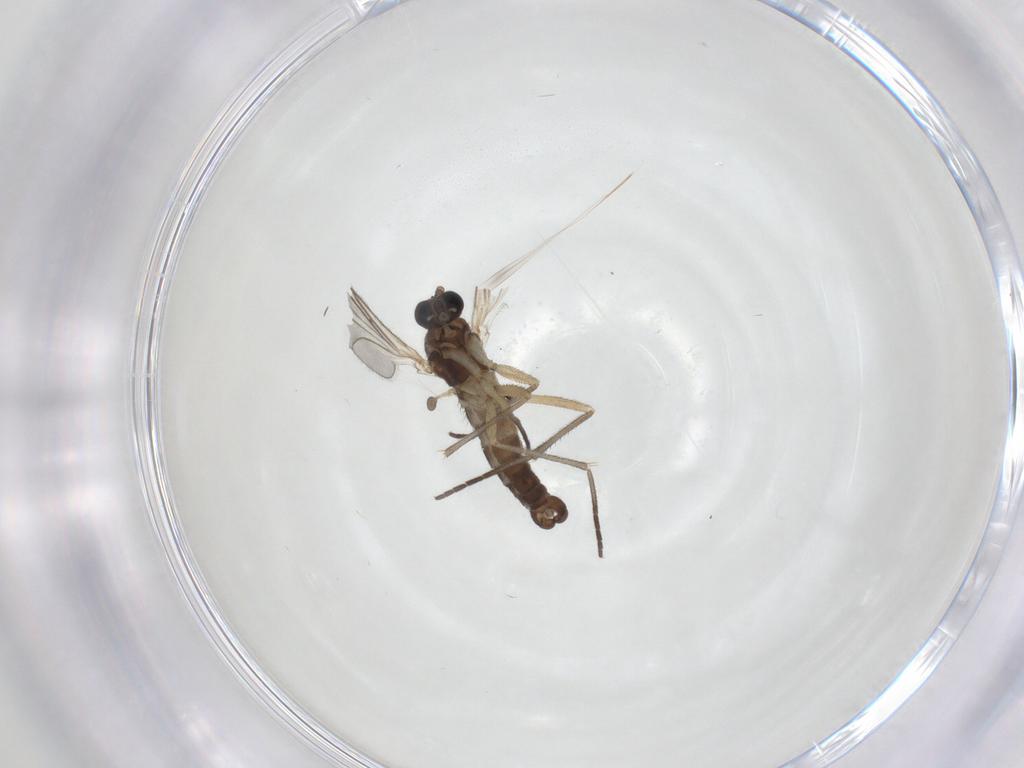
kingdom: Animalia
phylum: Arthropoda
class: Insecta
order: Diptera
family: Sciaridae
